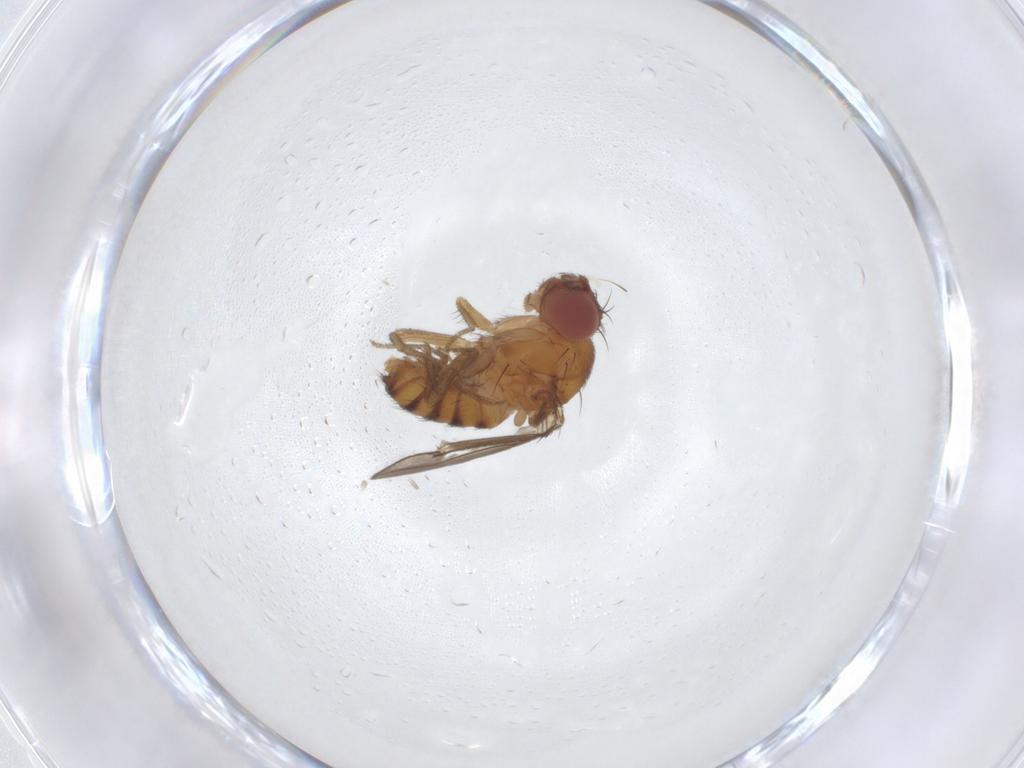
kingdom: Animalia
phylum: Arthropoda
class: Insecta
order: Diptera
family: Drosophilidae
